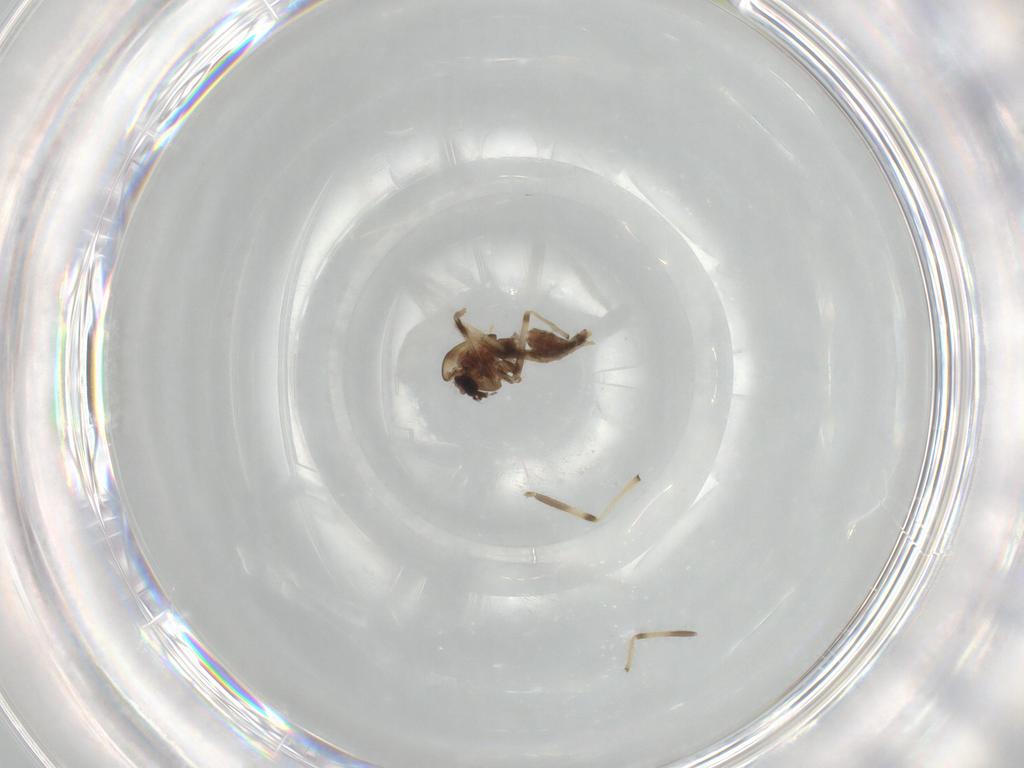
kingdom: Animalia
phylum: Arthropoda
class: Insecta
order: Diptera
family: Chironomidae
